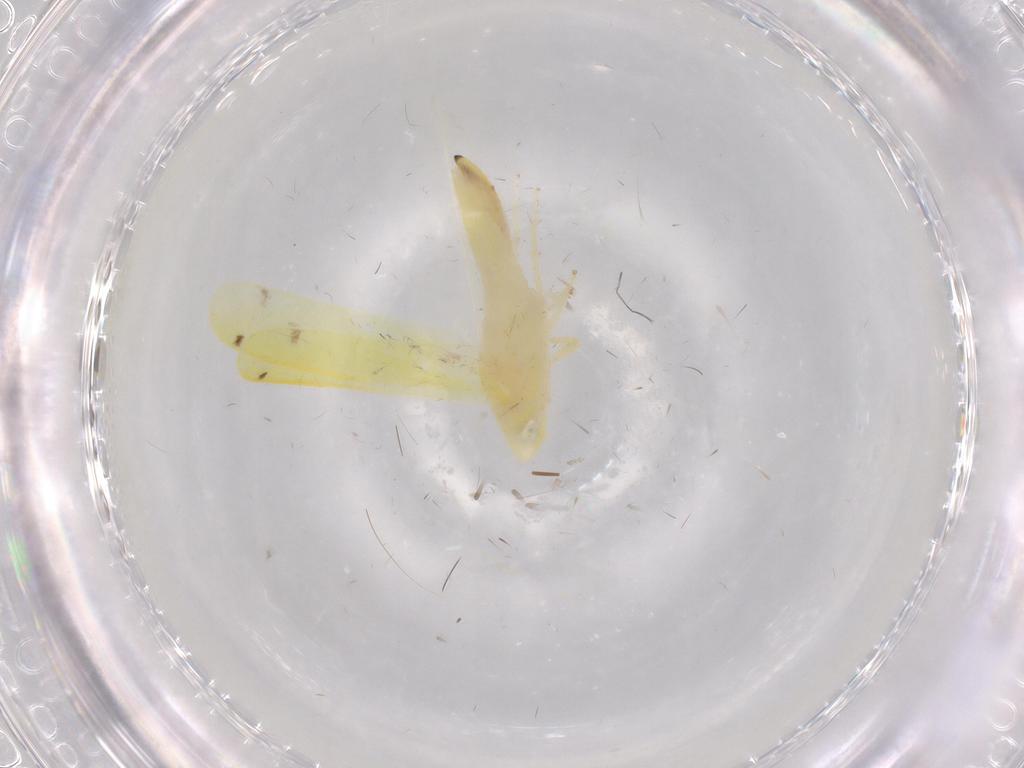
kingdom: Animalia
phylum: Arthropoda
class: Insecta
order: Hemiptera
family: Cicadellidae
